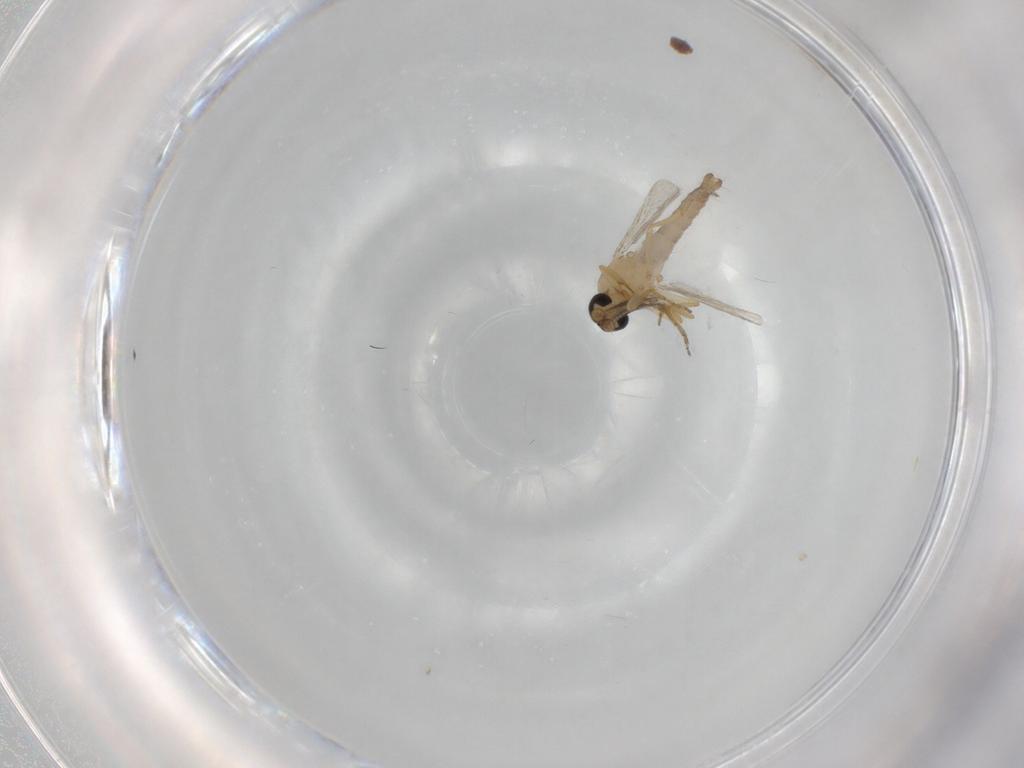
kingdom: Animalia
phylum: Arthropoda
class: Insecta
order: Diptera
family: Ceratopogonidae
